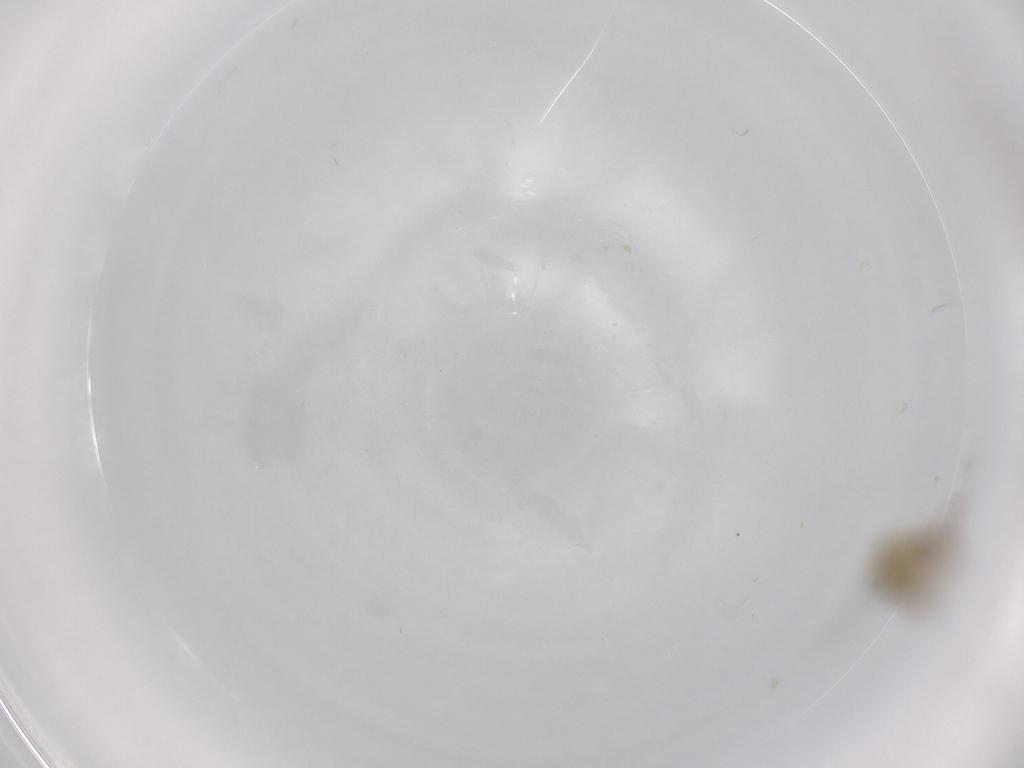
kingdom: Animalia
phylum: Arthropoda
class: Insecta
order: Diptera
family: Chironomidae
